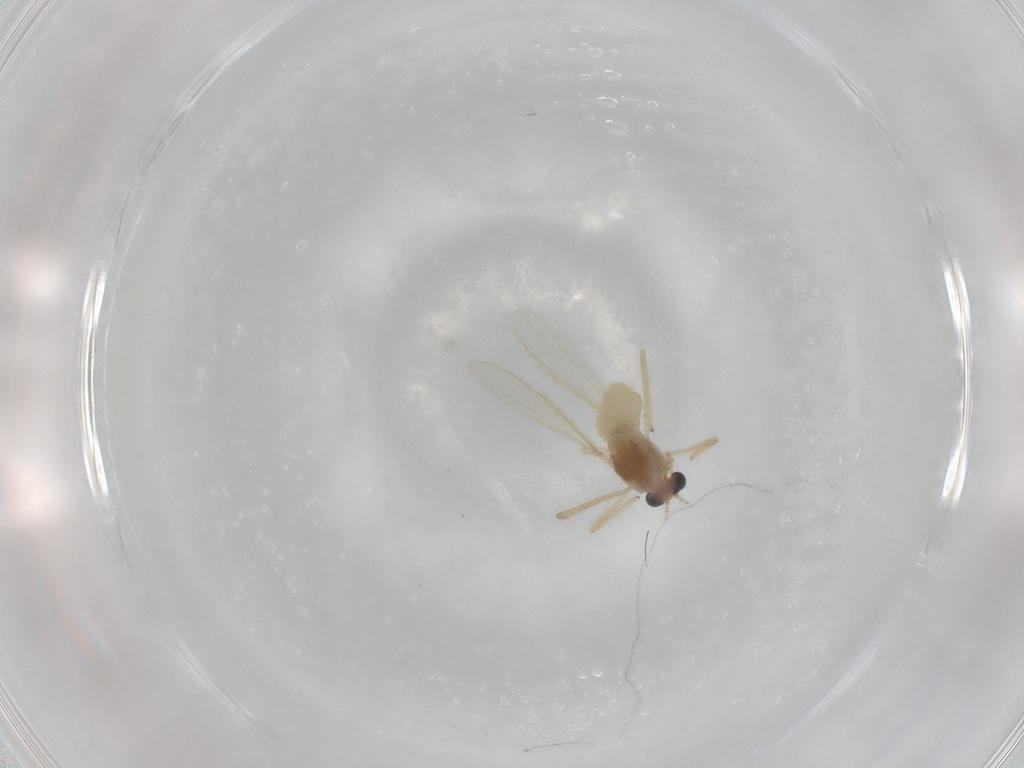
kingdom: Animalia
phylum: Arthropoda
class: Insecta
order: Diptera
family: Chironomidae
